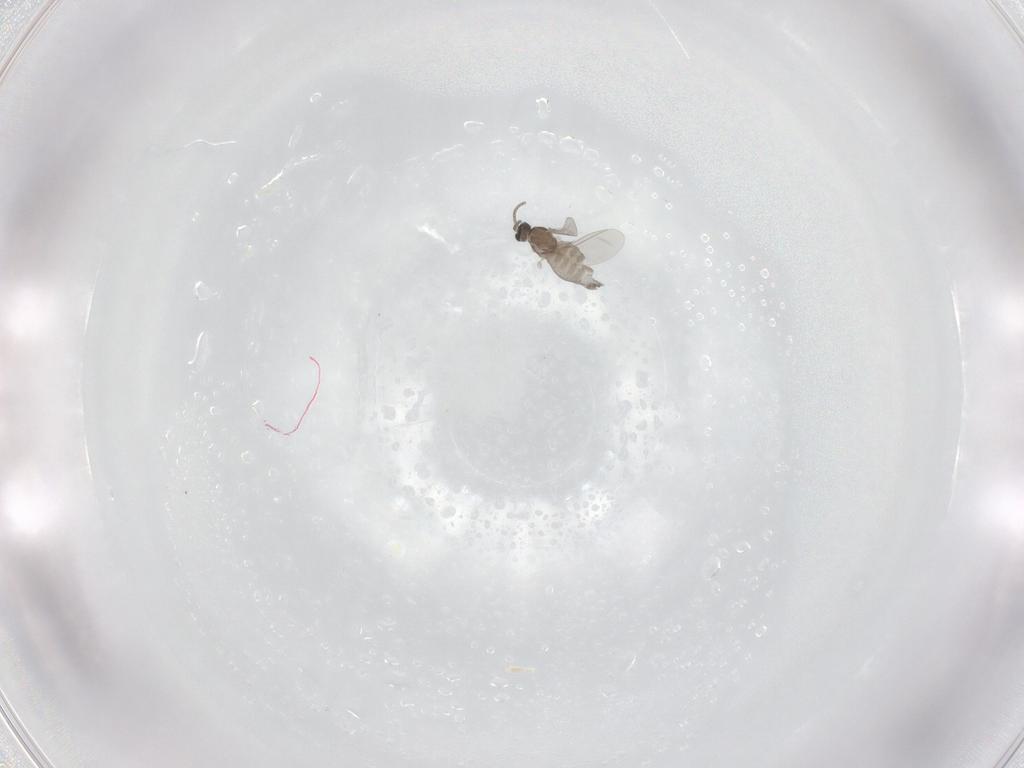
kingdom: Animalia
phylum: Arthropoda
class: Insecta
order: Diptera
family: Cecidomyiidae
